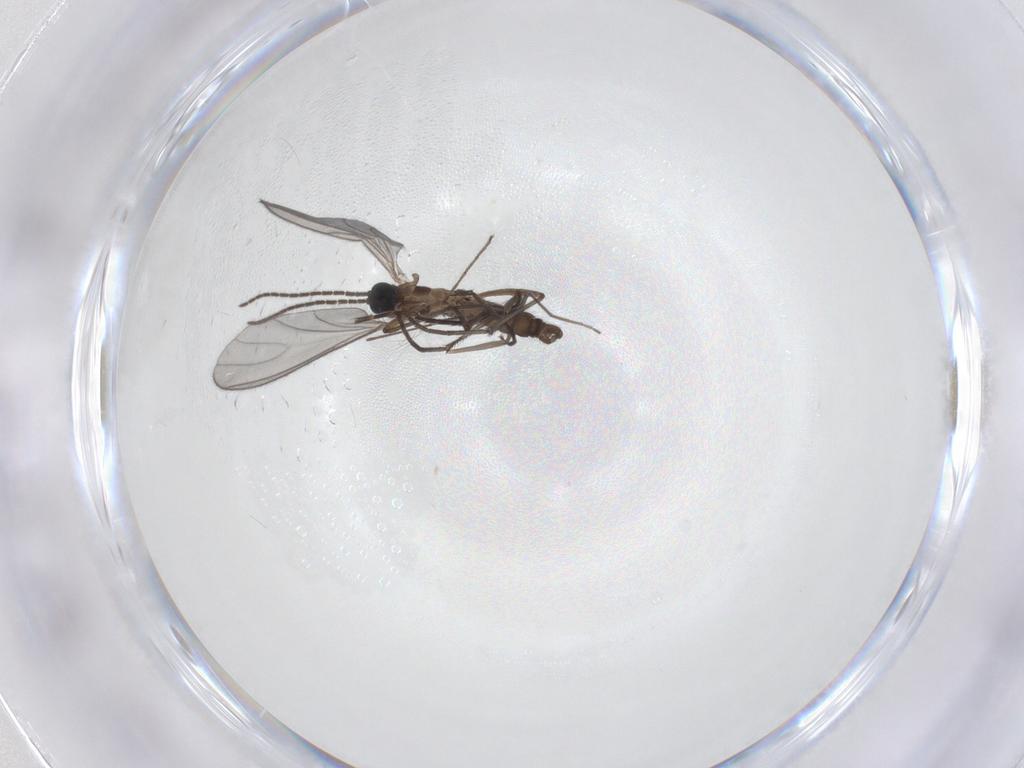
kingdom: Animalia
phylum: Arthropoda
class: Insecta
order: Diptera
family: Sciaridae
